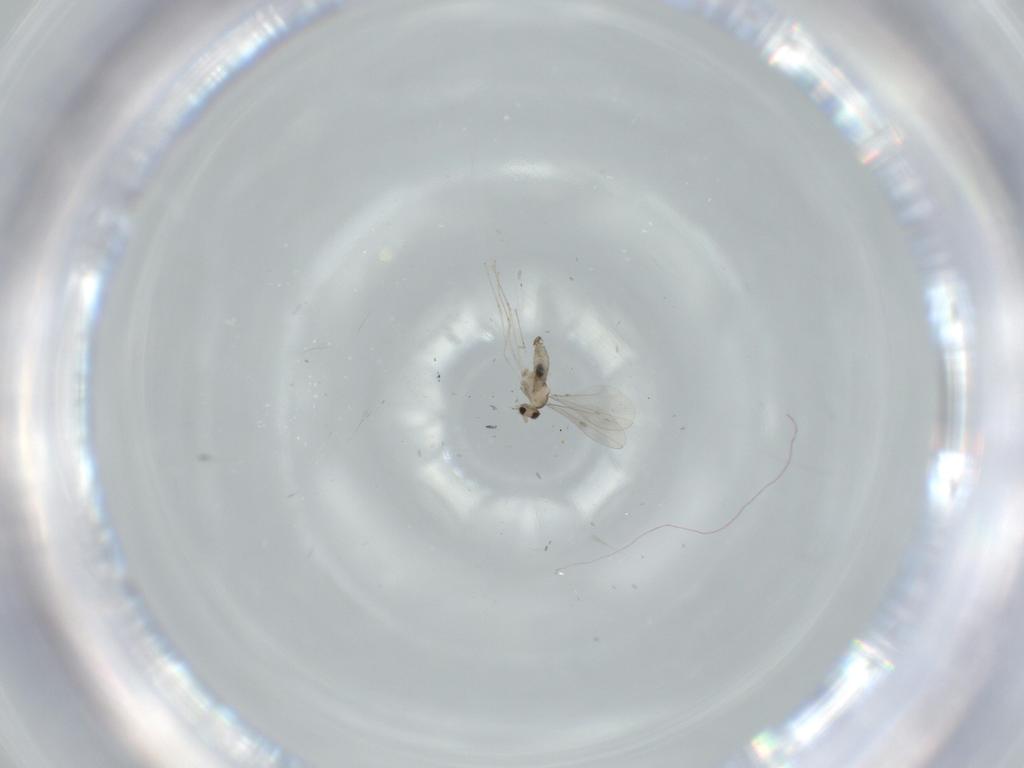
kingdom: Animalia
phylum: Arthropoda
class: Insecta
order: Diptera
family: Cecidomyiidae
